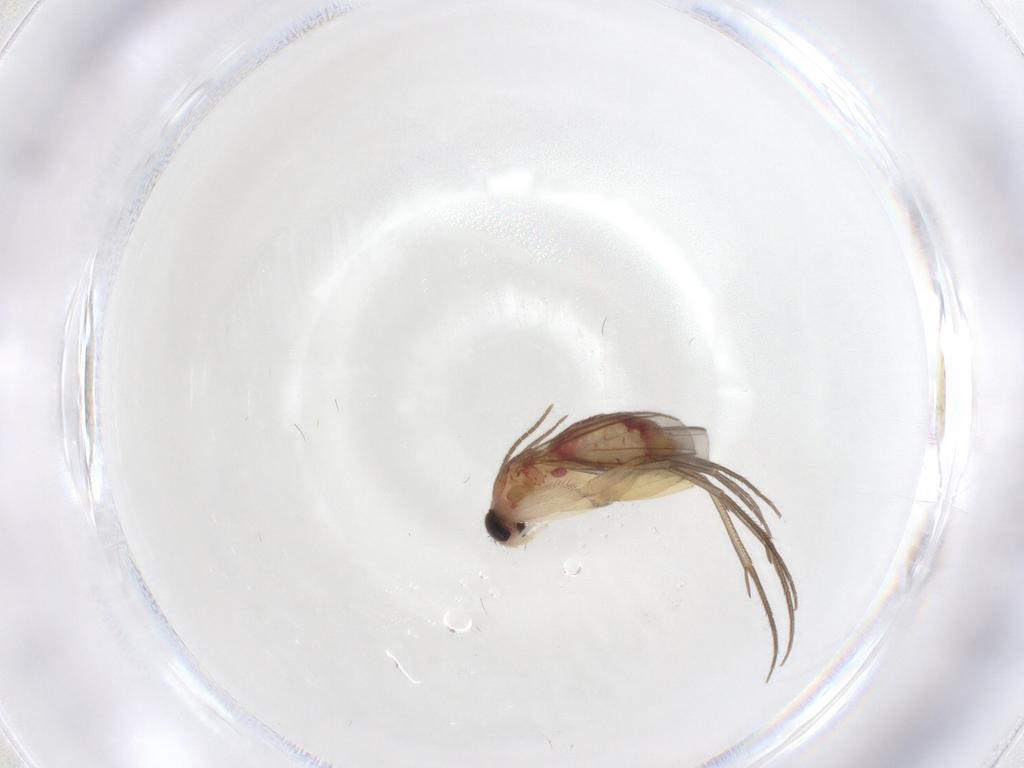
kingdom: Animalia
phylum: Arthropoda
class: Insecta
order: Diptera
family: Mycetophilidae
